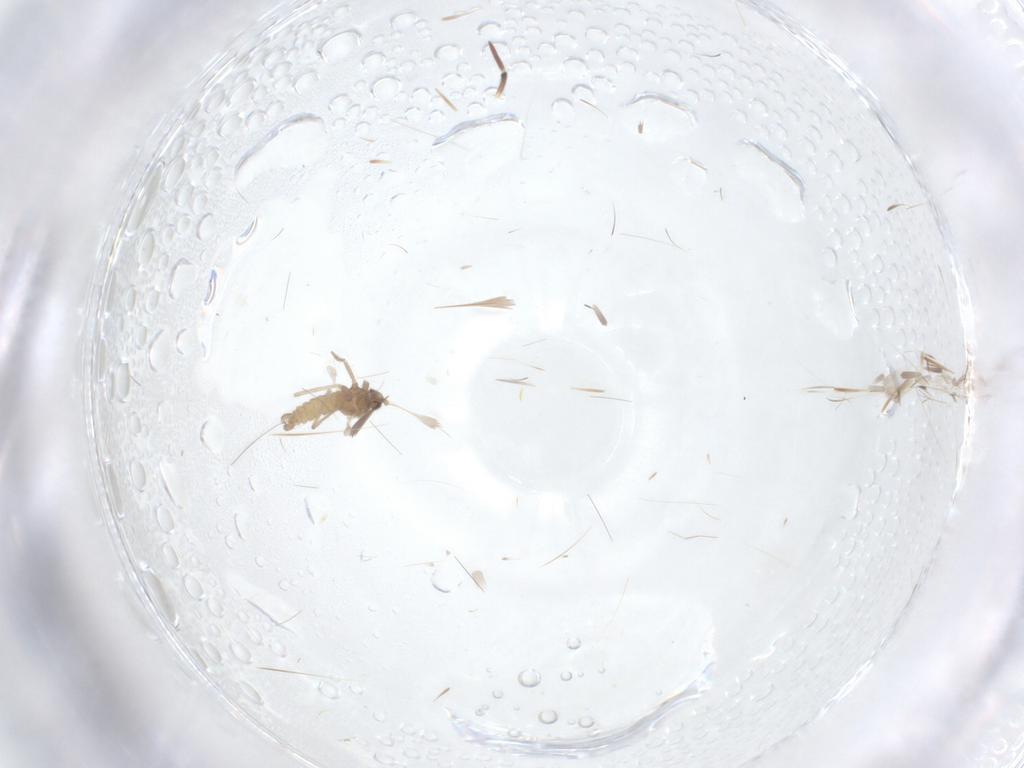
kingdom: Animalia
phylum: Arthropoda
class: Insecta
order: Diptera
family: Cecidomyiidae
